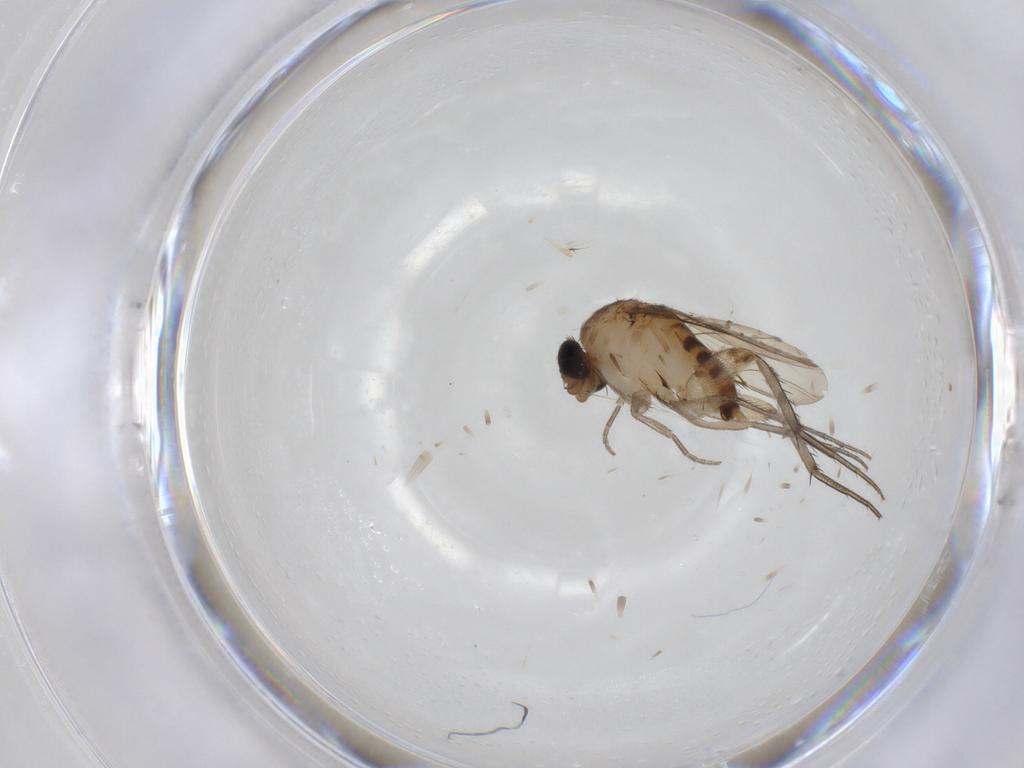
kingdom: Animalia
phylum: Arthropoda
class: Insecta
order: Diptera
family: Phoridae
